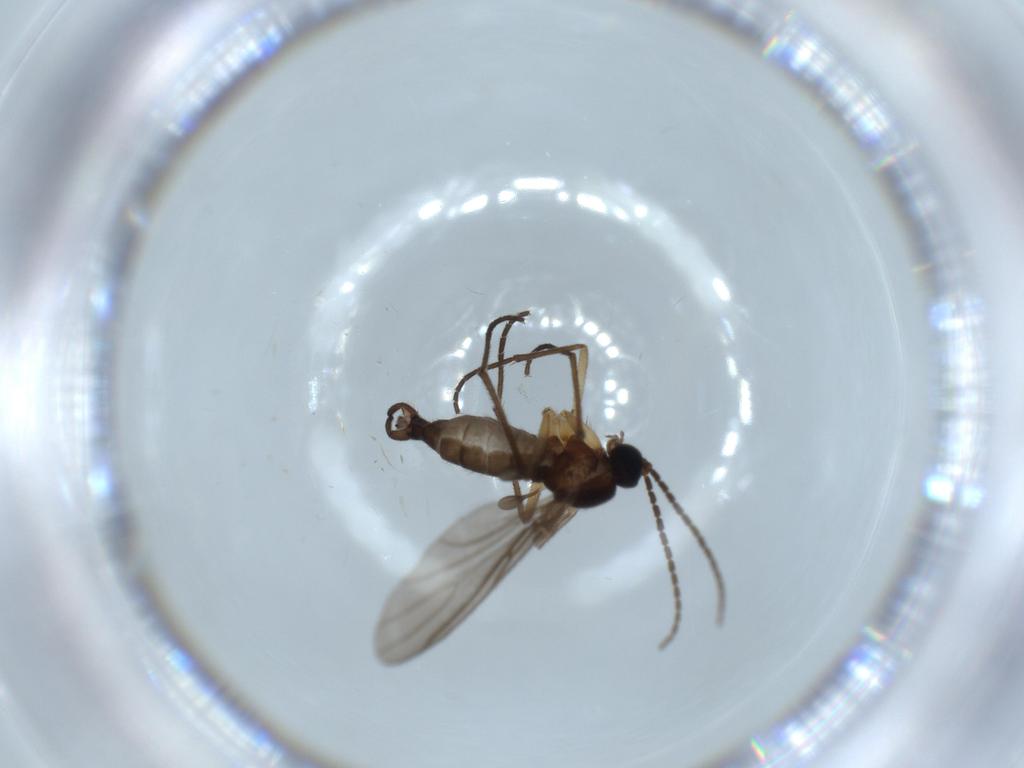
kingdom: Animalia
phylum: Arthropoda
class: Insecta
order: Diptera
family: Sciaridae
